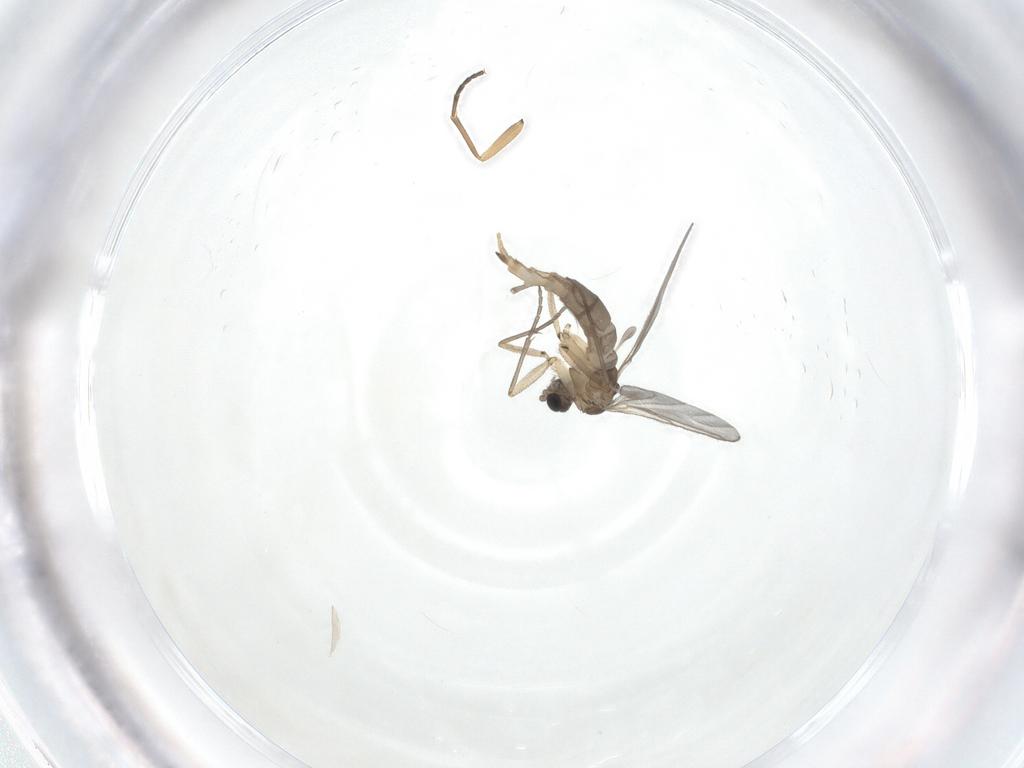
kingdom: Animalia
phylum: Arthropoda
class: Insecta
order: Diptera
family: Sciaridae
